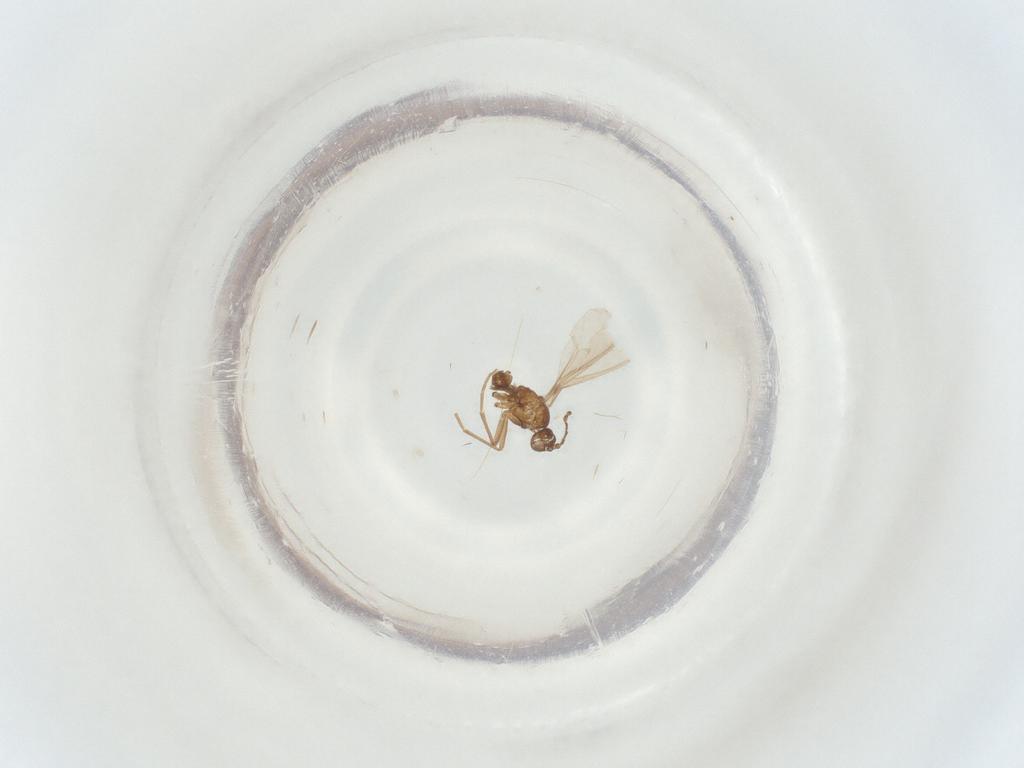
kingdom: Animalia
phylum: Arthropoda
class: Insecta
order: Diptera
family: Sciaridae
